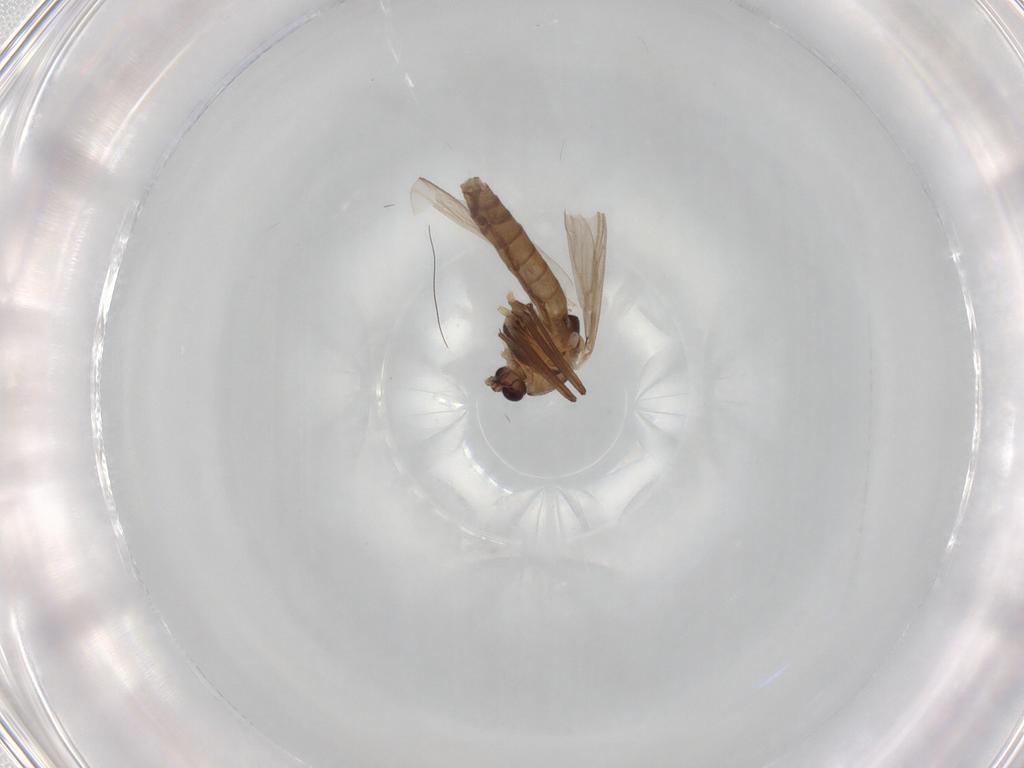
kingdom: Animalia
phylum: Arthropoda
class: Insecta
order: Diptera
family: Chironomidae
